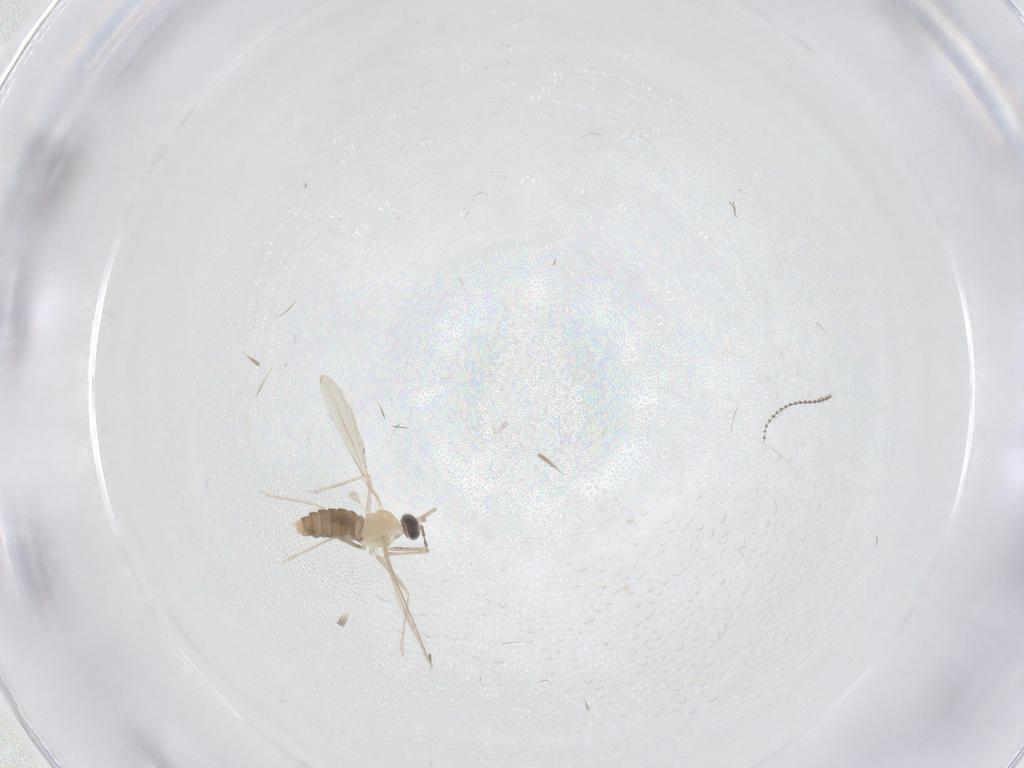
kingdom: Animalia
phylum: Arthropoda
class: Insecta
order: Diptera
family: Cecidomyiidae
